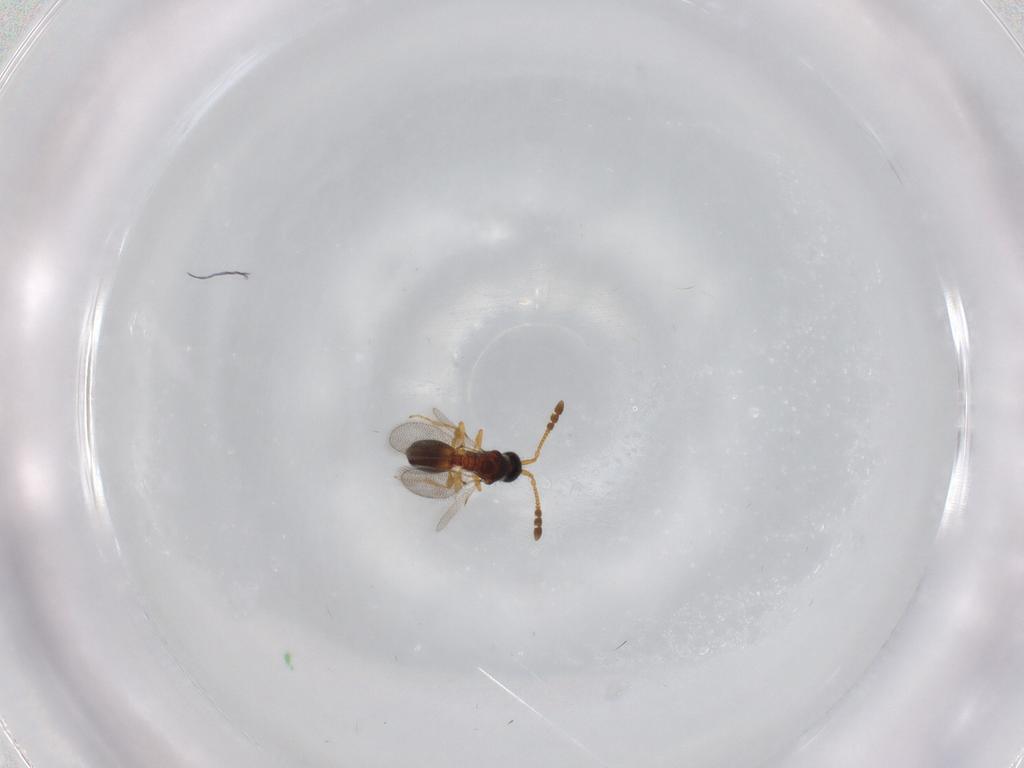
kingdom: Animalia
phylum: Arthropoda
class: Insecta
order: Hymenoptera
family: Diapriidae
